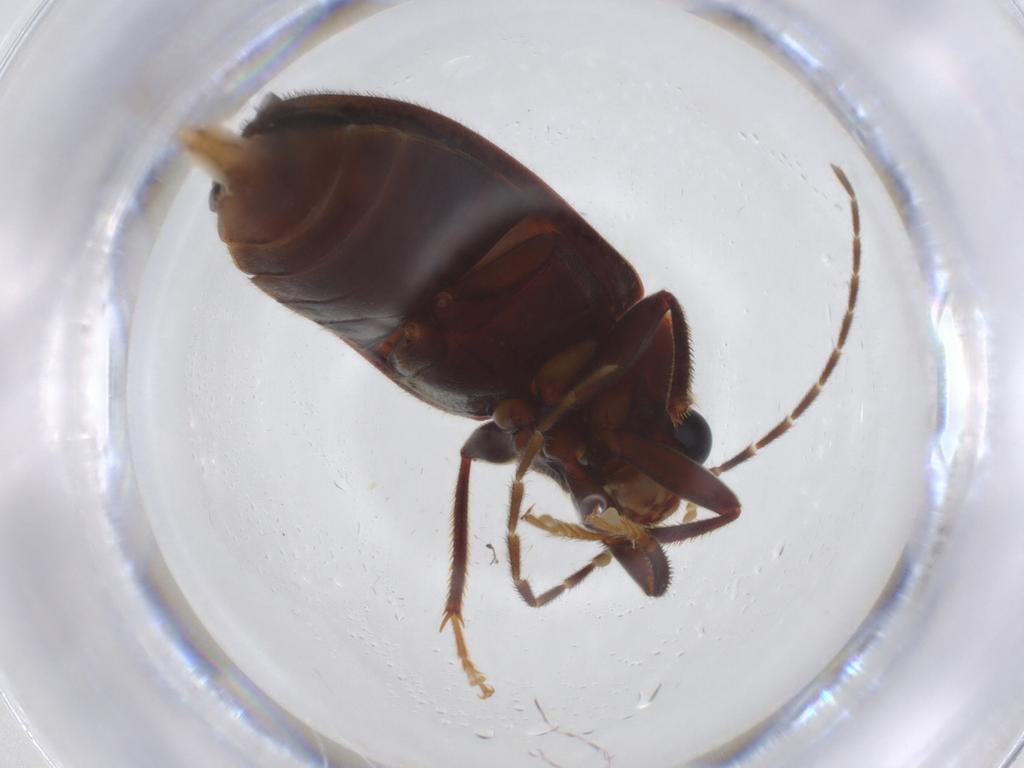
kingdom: Animalia
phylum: Arthropoda
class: Insecta
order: Coleoptera
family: Ptilodactylidae
